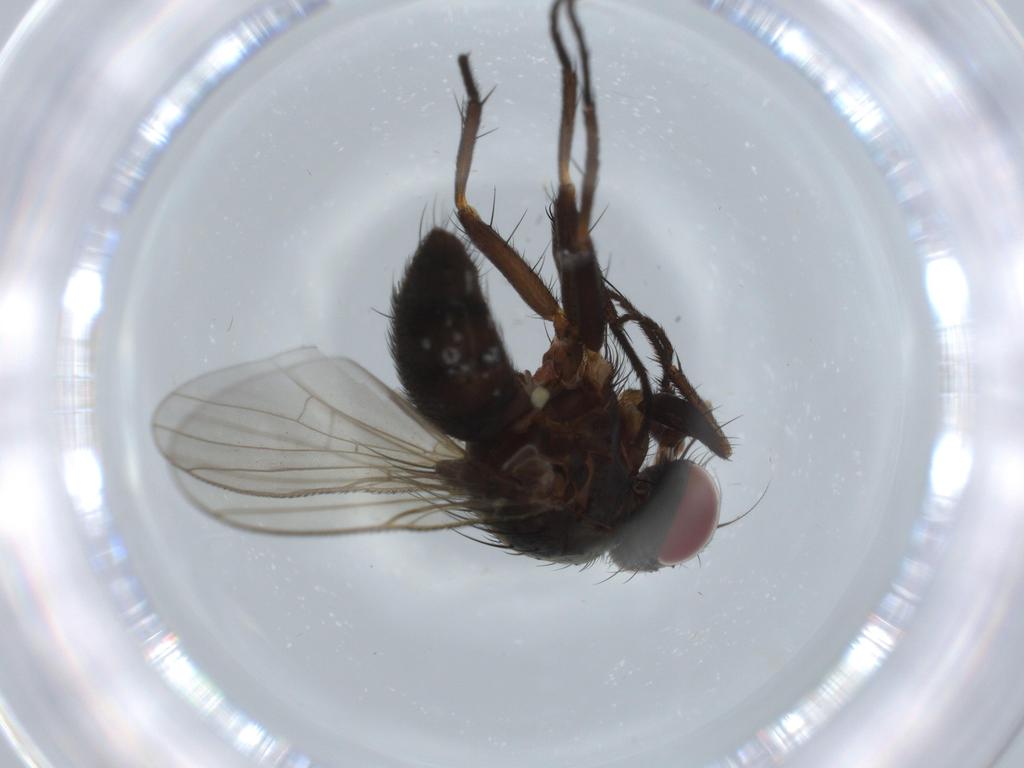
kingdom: Animalia
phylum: Arthropoda
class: Insecta
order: Diptera
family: Muscidae
